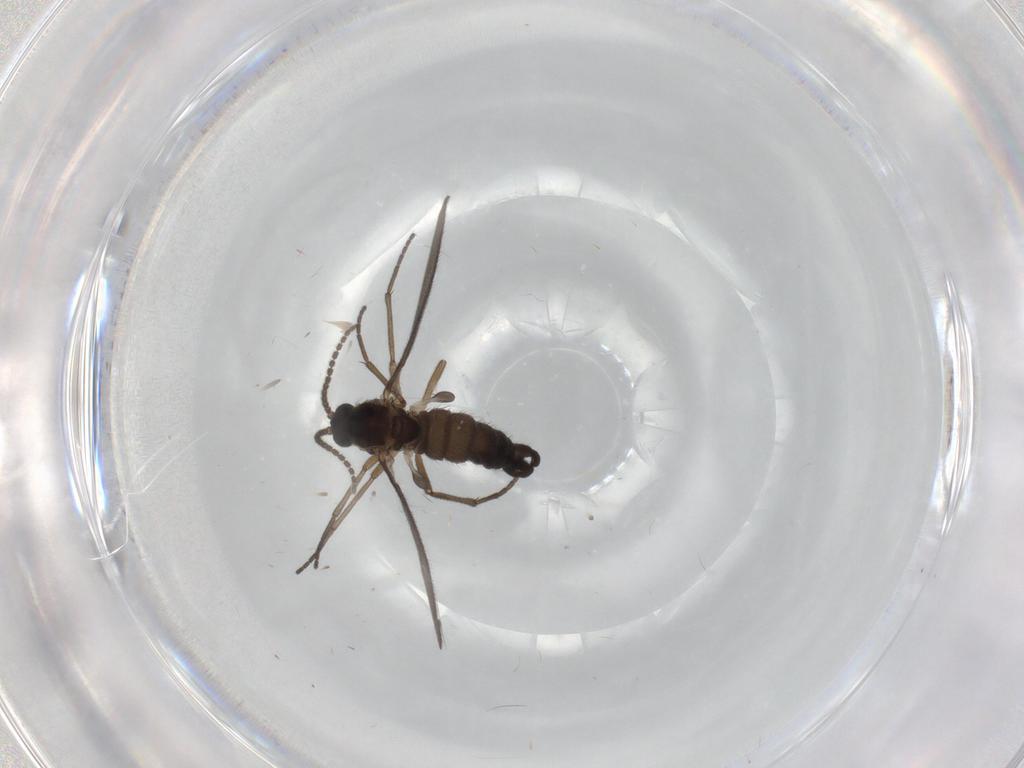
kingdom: Animalia
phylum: Arthropoda
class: Insecta
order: Diptera
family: Sciaridae
